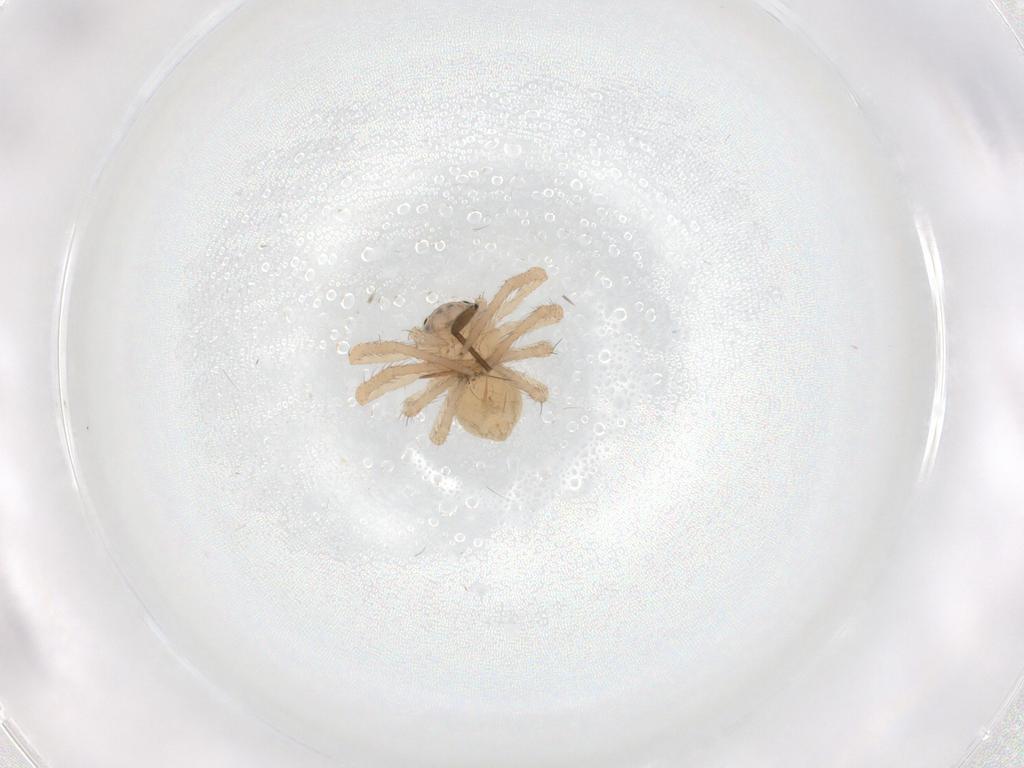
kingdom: Animalia
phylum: Arthropoda
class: Arachnida
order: Araneae
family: Thomisidae
